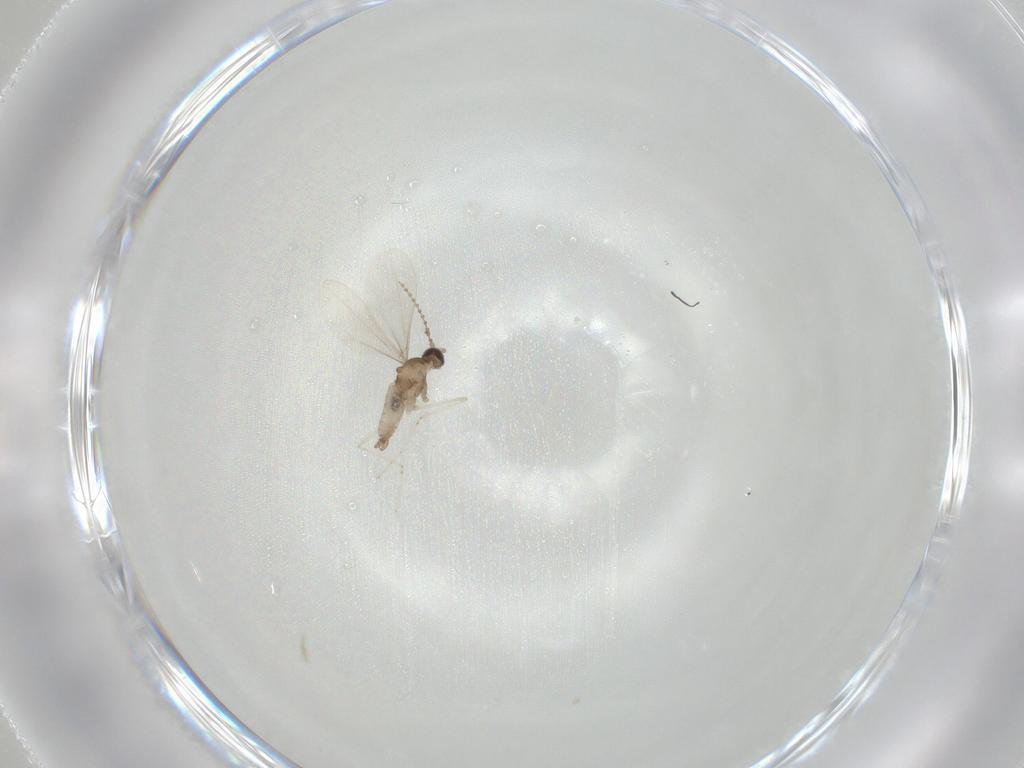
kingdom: Animalia
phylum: Arthropoda
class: Insecta
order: Diptera
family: Ceratopogonidae
